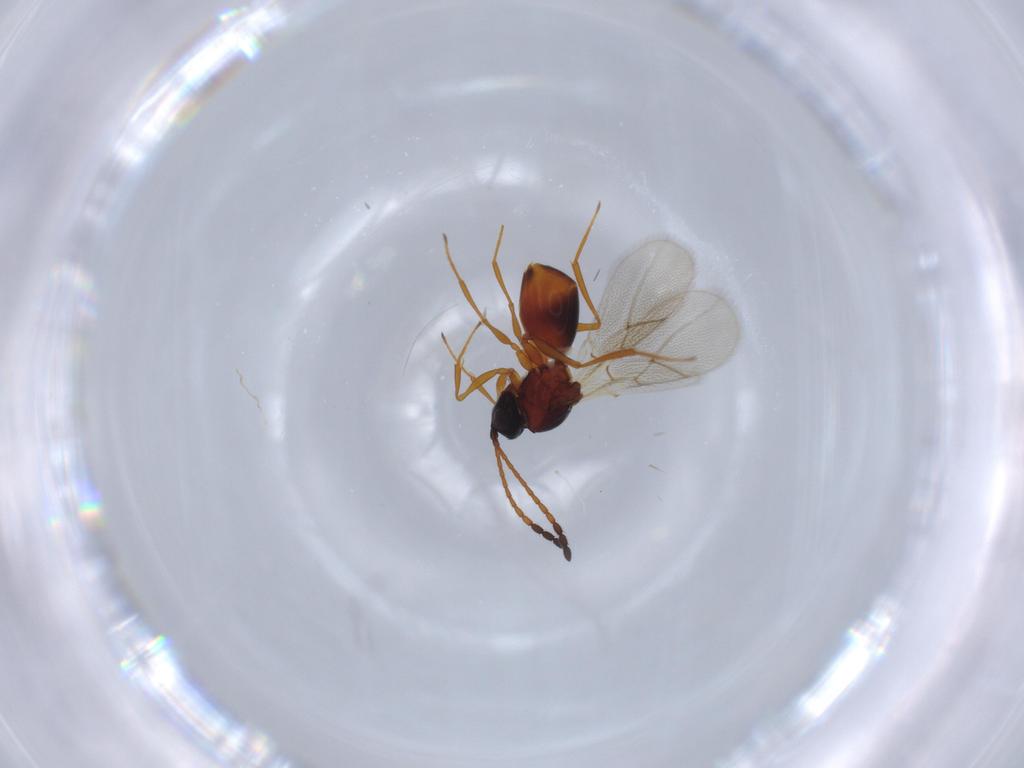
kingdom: Animalia
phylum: Arthropoda
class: Insecta
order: Hymenoptera
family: Figitidae
